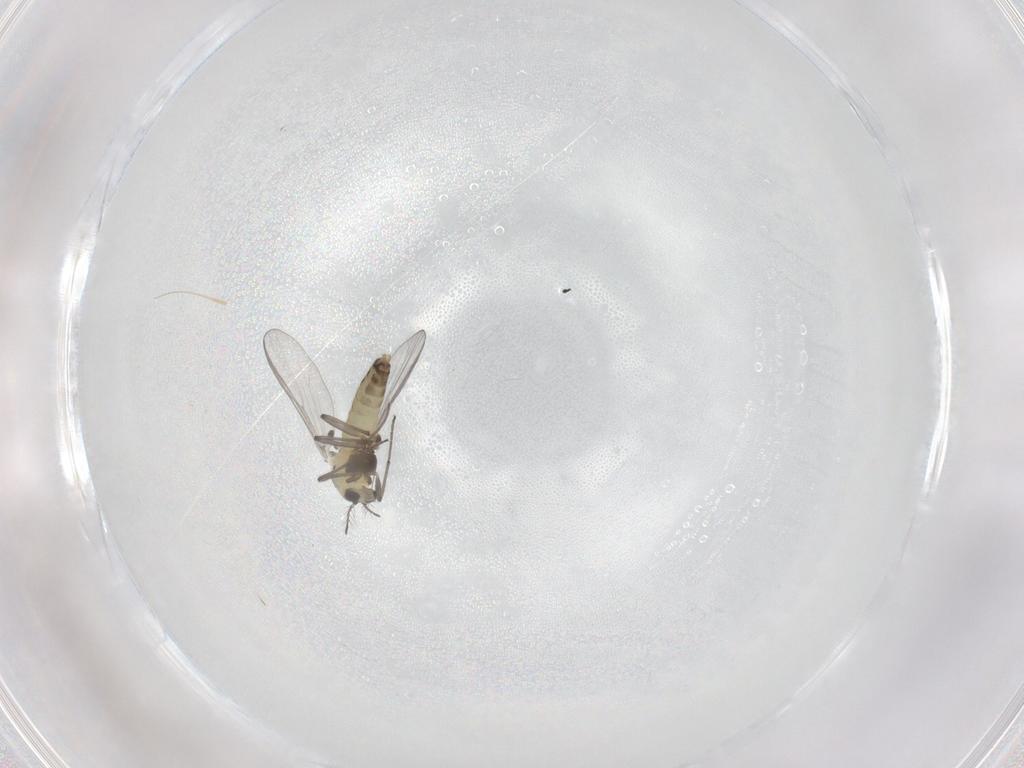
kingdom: Animalia
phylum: Arthropoda
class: Insecta
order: Diptera
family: Chironomidae
